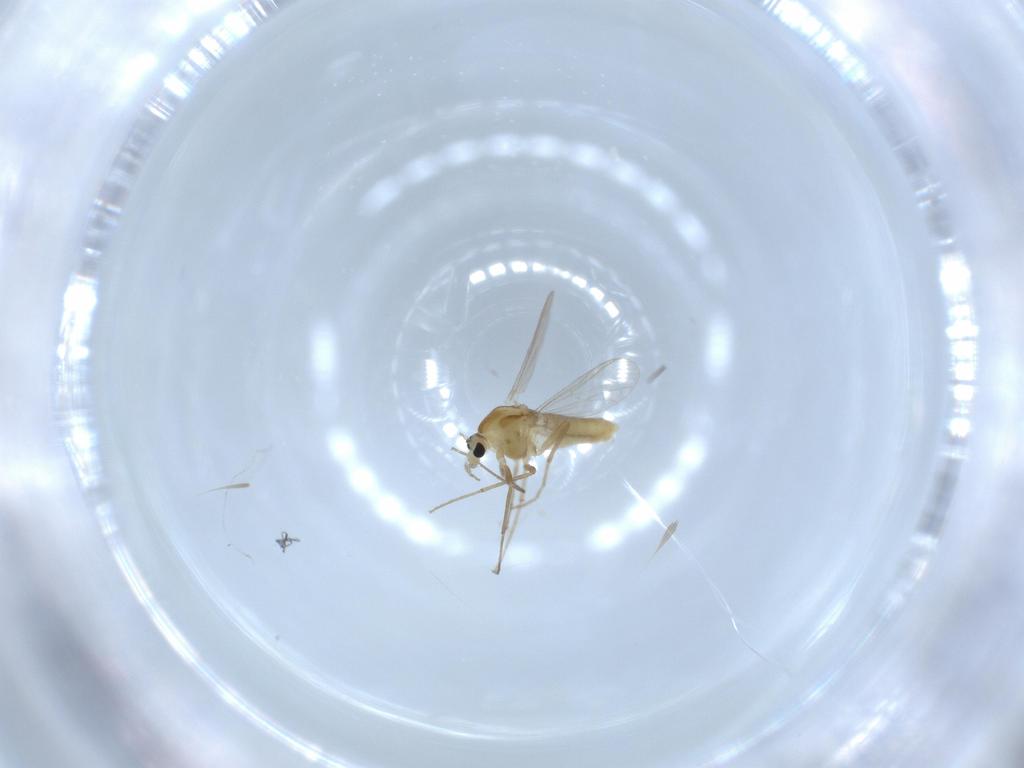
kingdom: Animalia
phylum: Arthropoda
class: Insecta
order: Diptera
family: Chironomidae
